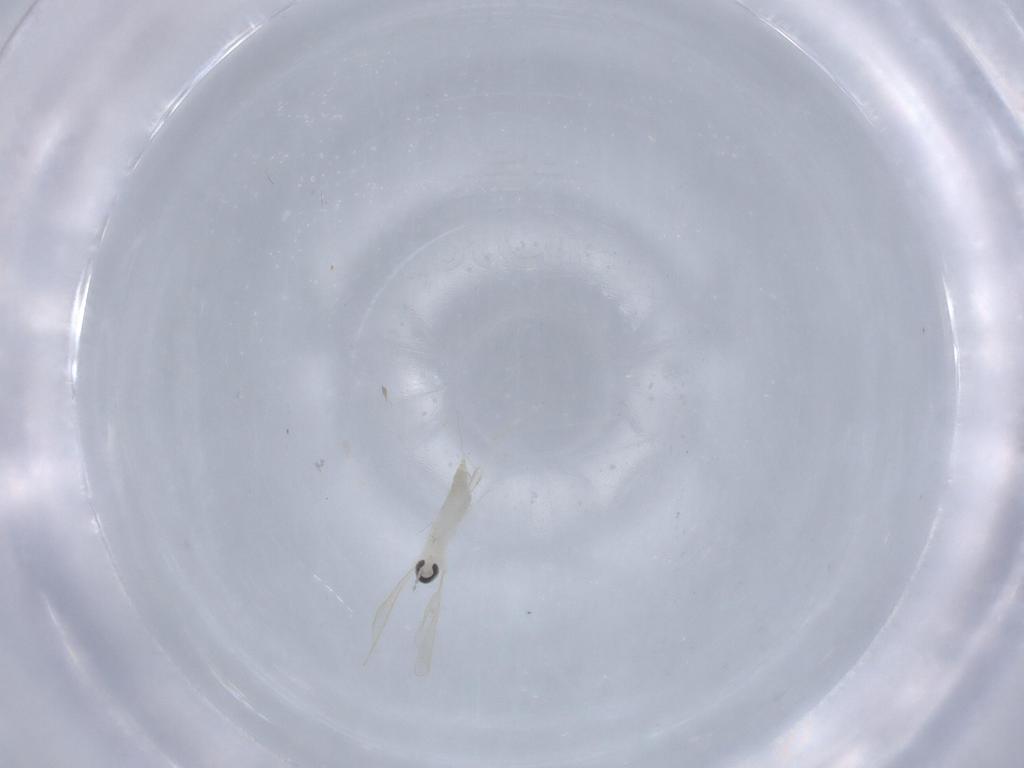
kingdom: Animalia
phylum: Arthropoda
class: Insecta
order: Diptera
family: Cecidomyiidae
